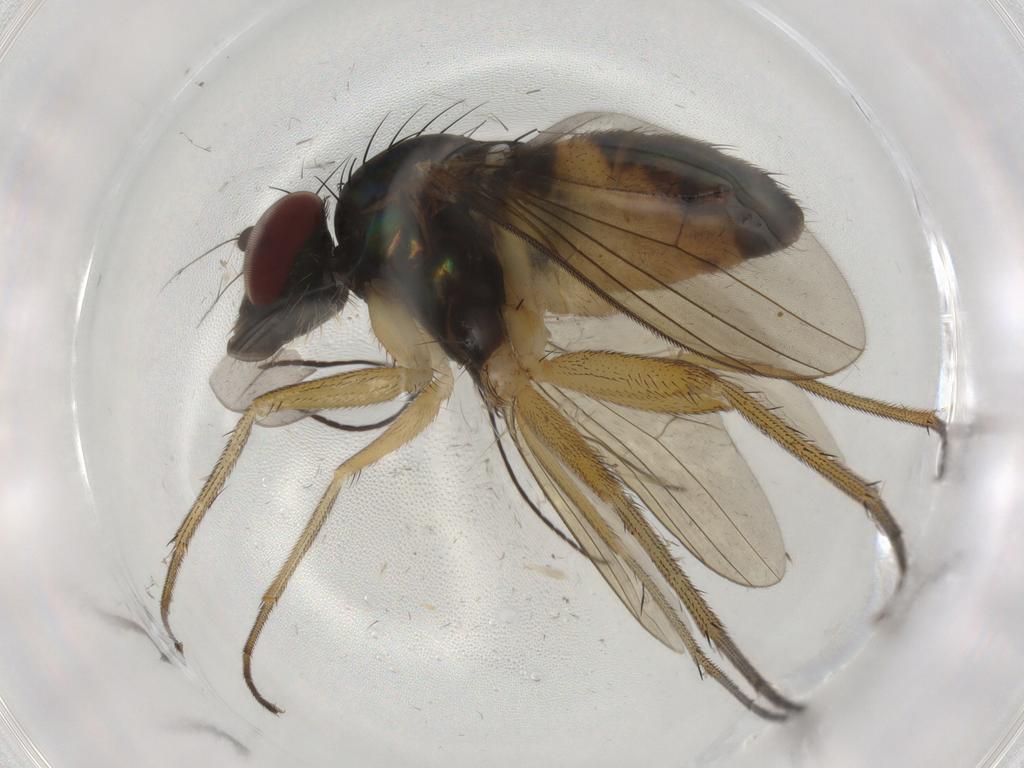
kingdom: Animalia
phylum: Arthropoda
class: Insecta
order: Diptera
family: Dolichopodidae
